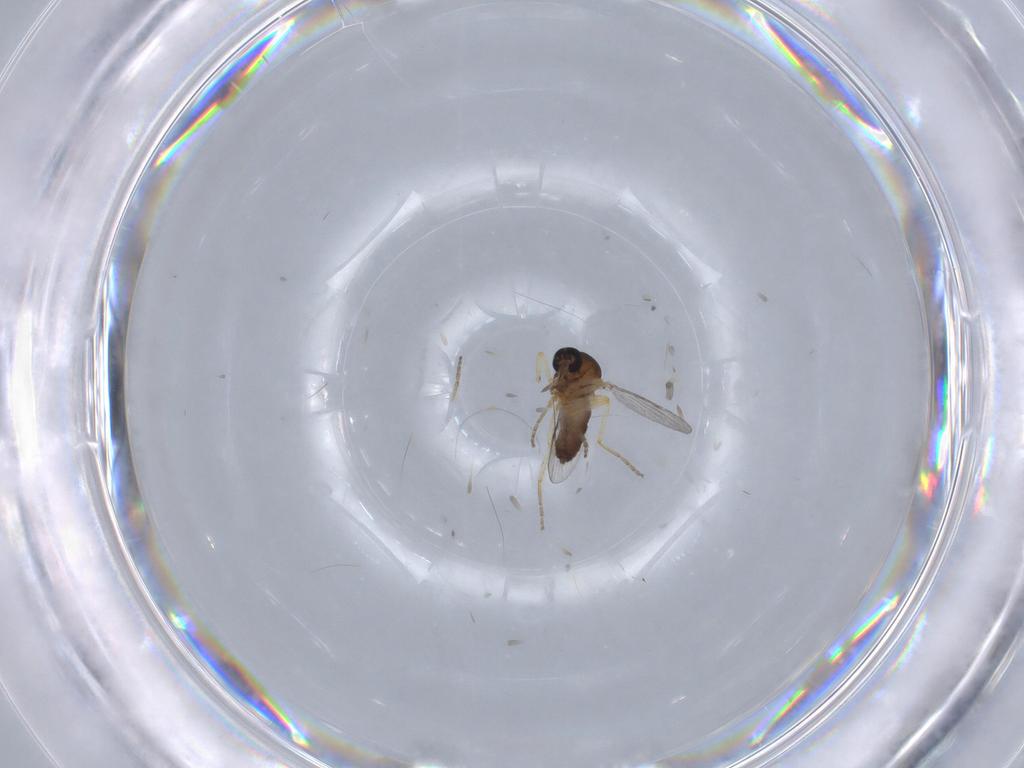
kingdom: Animalia
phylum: Arthropoda
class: Insecta
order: Diptera
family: Ceratopogonidae
